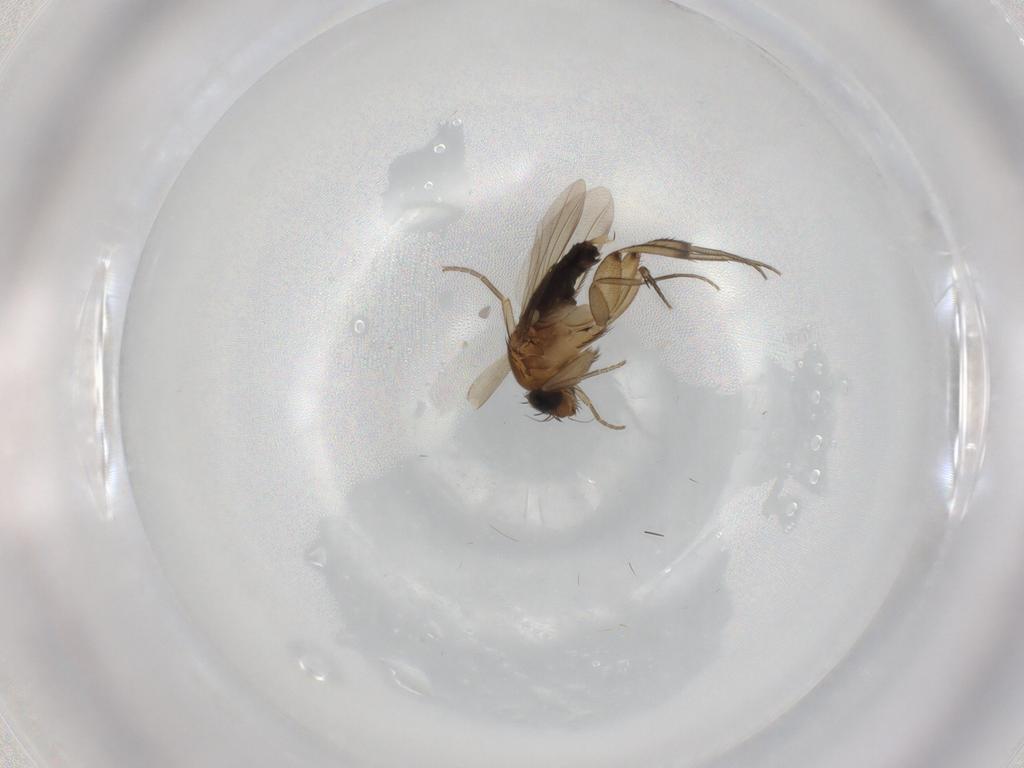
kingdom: Animalia
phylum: Arthropoda
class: Insecta
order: Diptera
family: Phoridae
